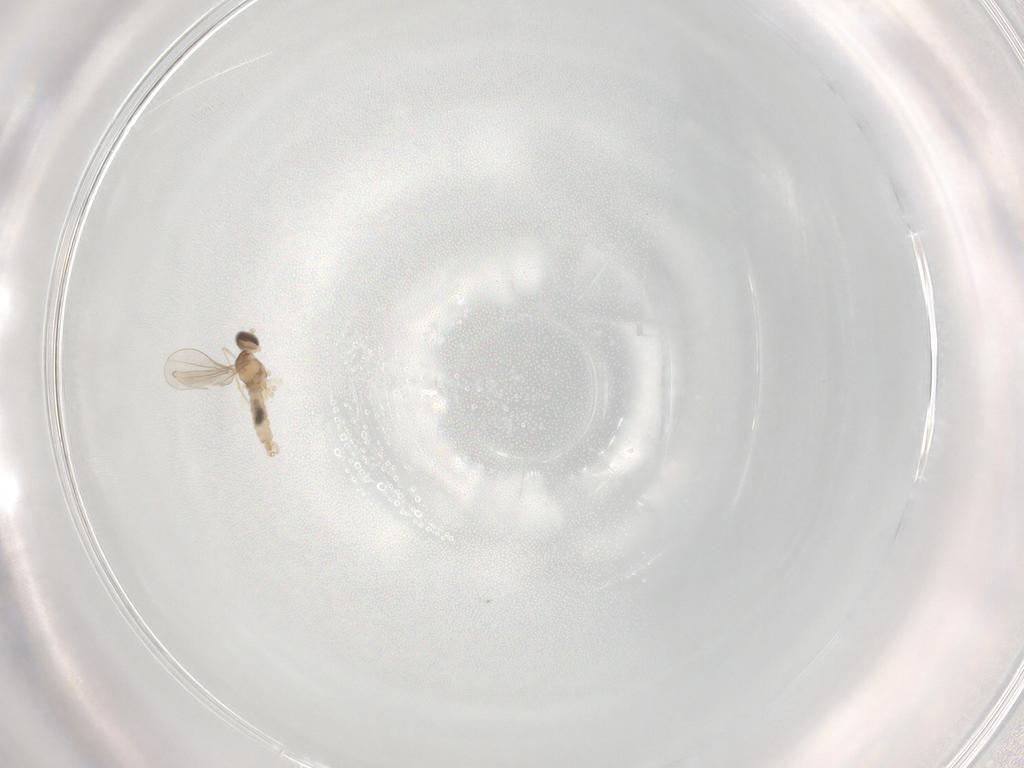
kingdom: Animalia
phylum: Arthropoda
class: Insecta
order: Diptera
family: Cecidomyiidae
